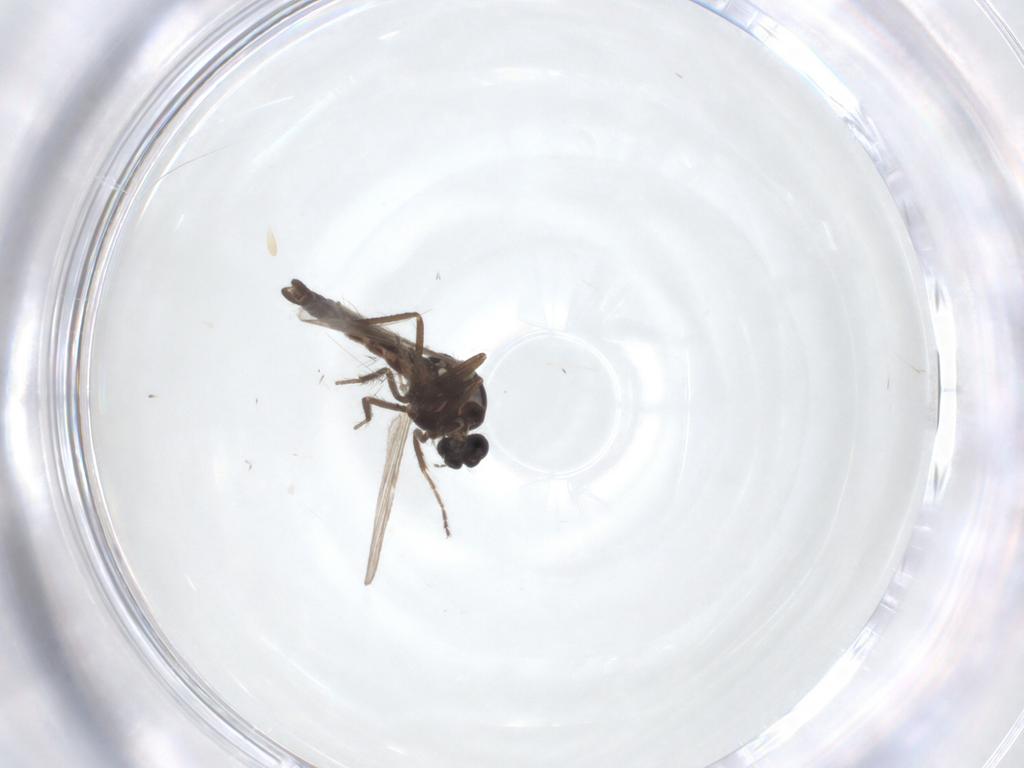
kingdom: Animalia
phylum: Arthropoda
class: Insecta
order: Diptera
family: Ceratopogonidae
